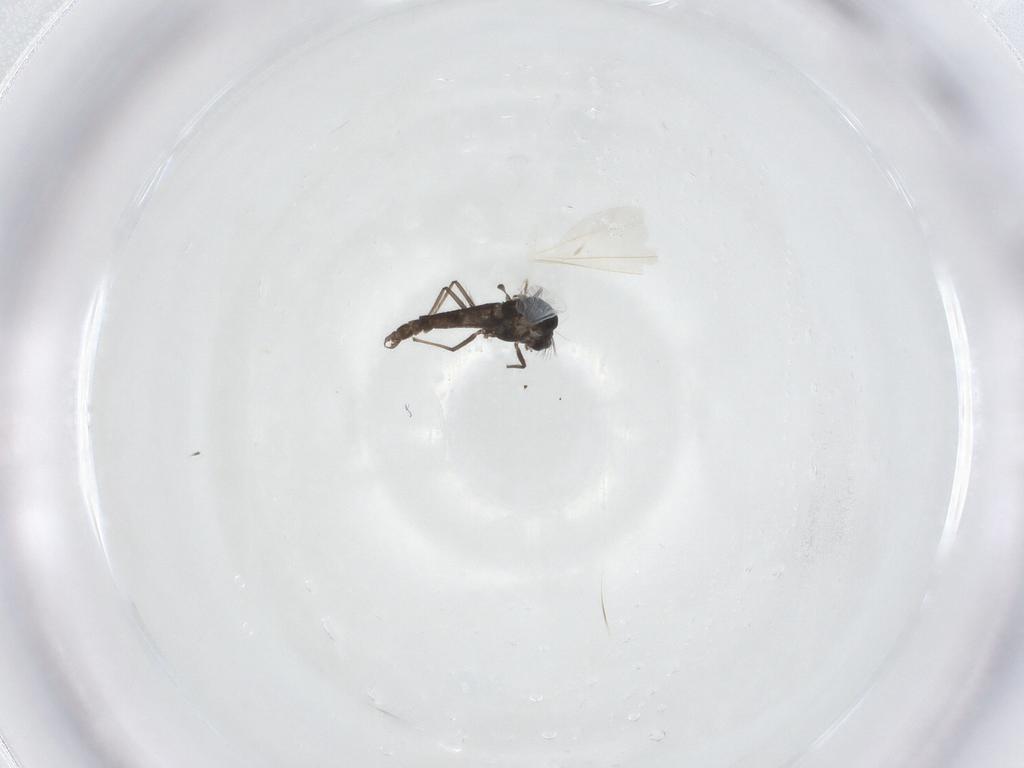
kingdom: Animalia
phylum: Arthropoda
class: Insecta
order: Diptera
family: Chironomidae
